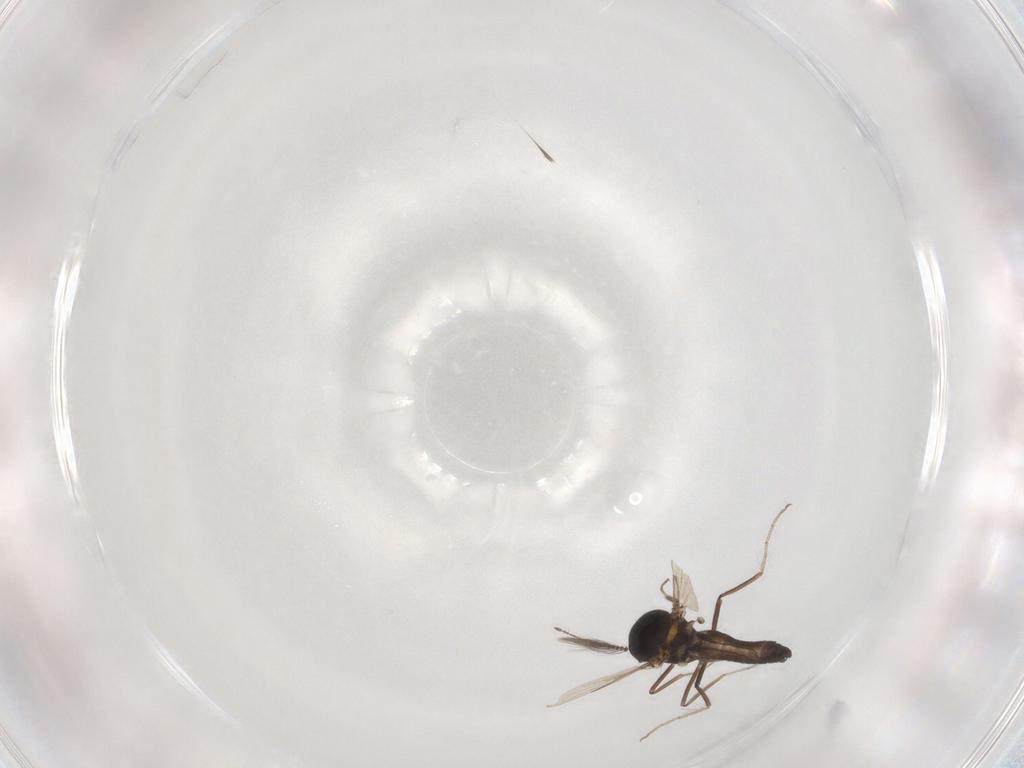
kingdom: Animalia
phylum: Arthropoda
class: Insecta
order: Diptera
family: Ceratopogonidae
